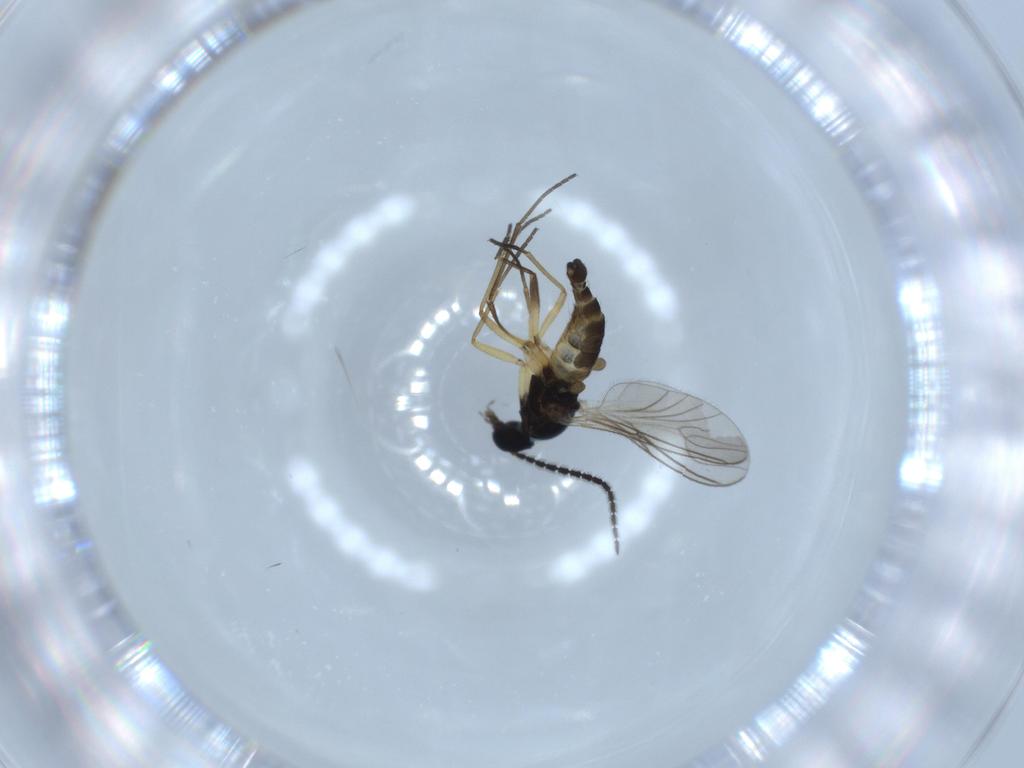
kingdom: Animalia
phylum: Arthropoda
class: Insecta
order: Diptera
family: Sciaridae
